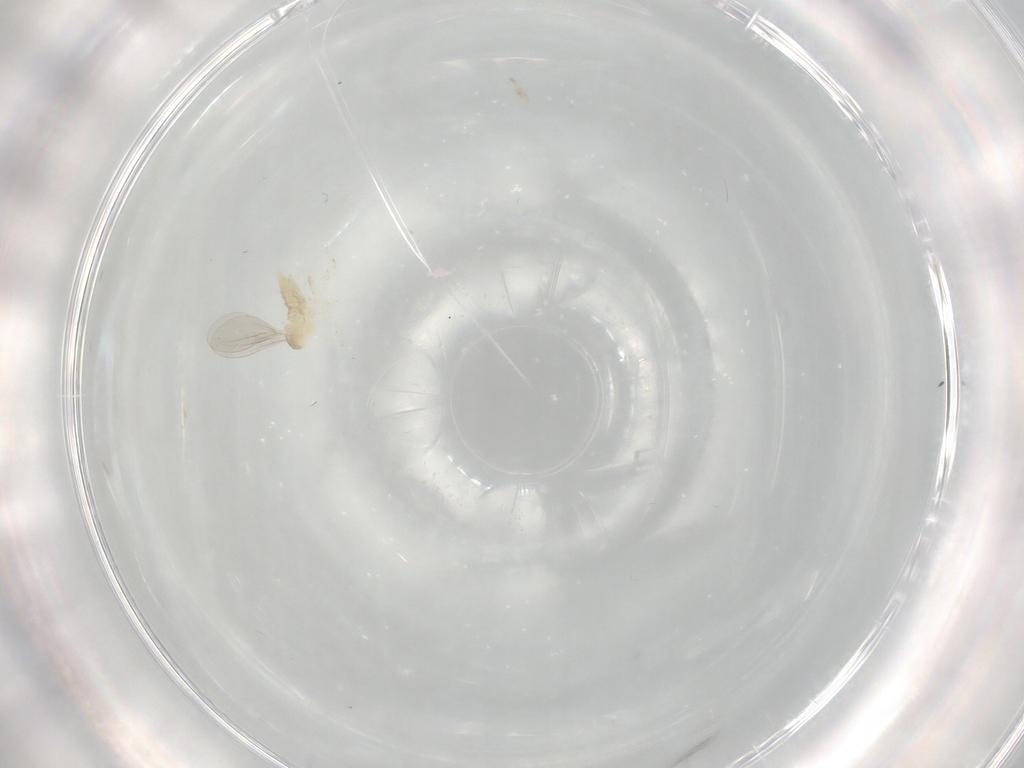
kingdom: Animalia
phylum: Arthropoda
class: Insecta
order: Diptera
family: Cecidomyiidae
